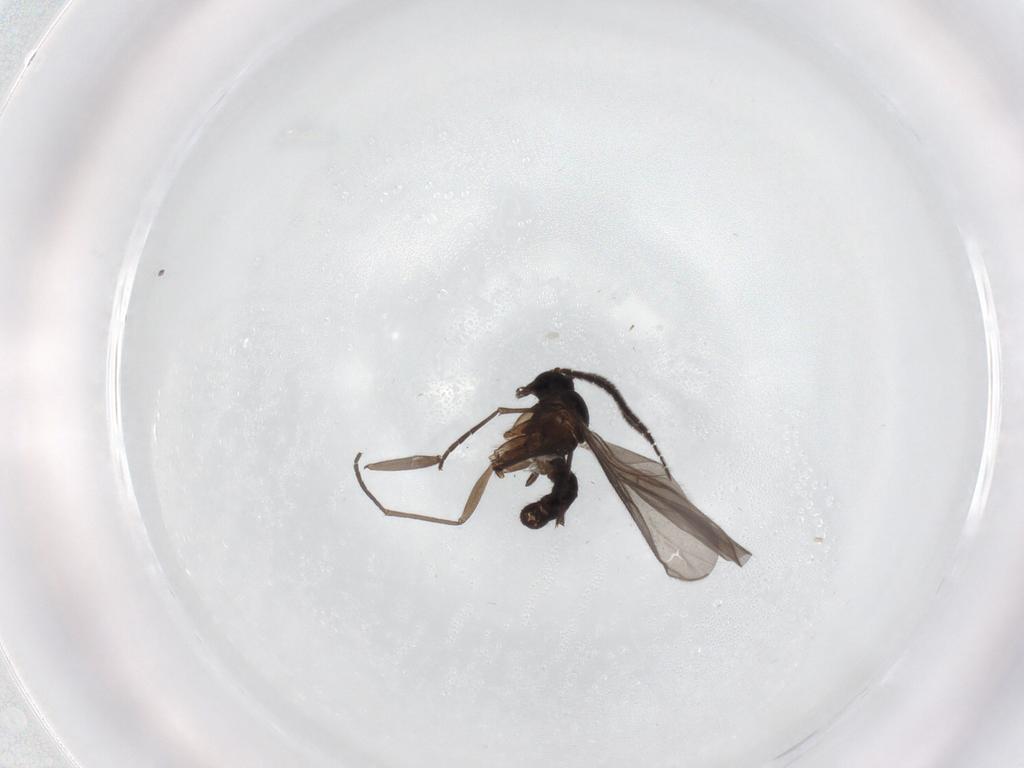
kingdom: Animalia
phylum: Arthropoda
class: Insecta
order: Diptera
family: Sciaridae
